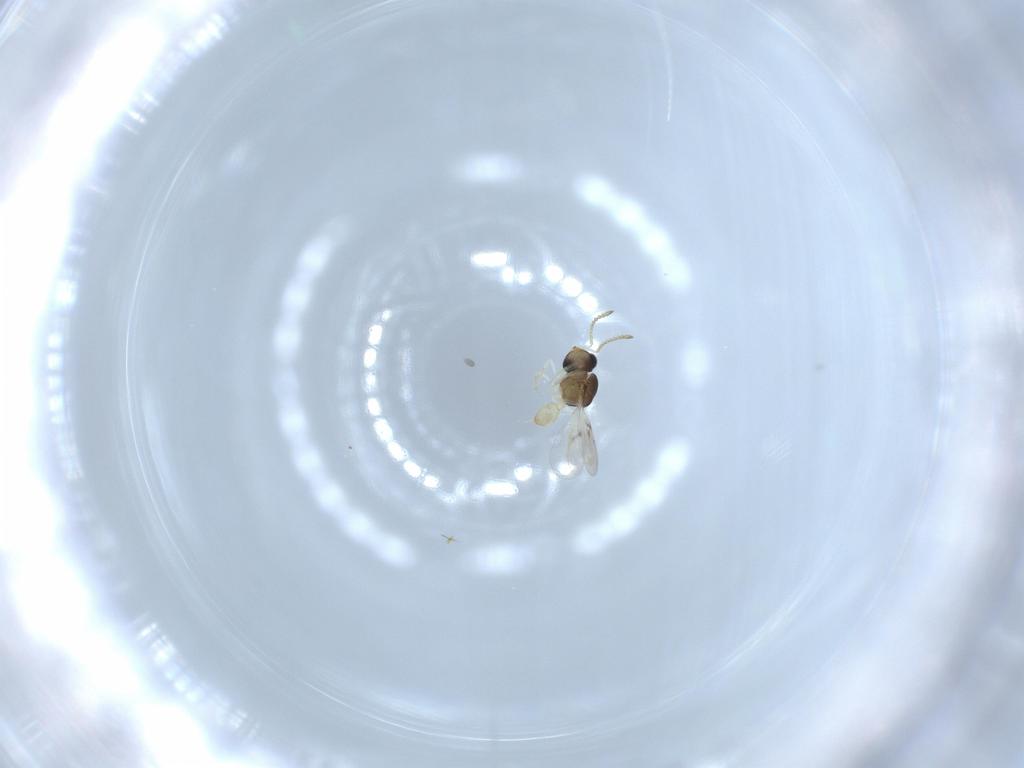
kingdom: Animalia
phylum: Arthropoda
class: Insecta
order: Hymenoptera
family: Scelionidae
